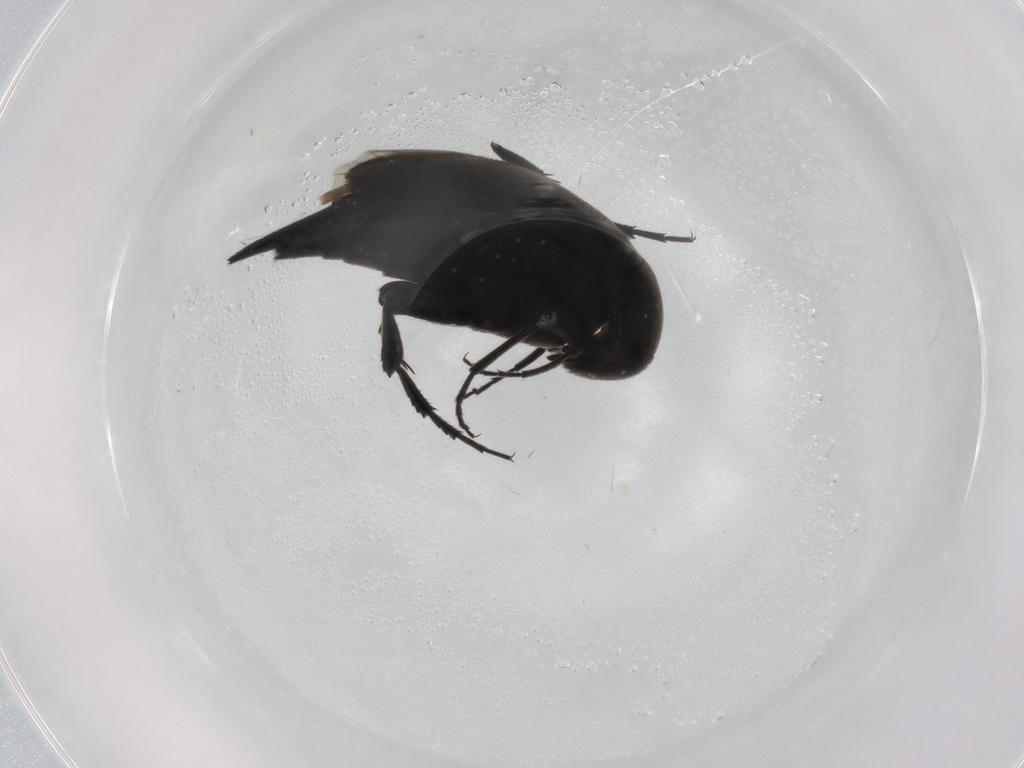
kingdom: Animalia
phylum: Arthropoda
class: Insecta
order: Coleoptera
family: Mordellidae
